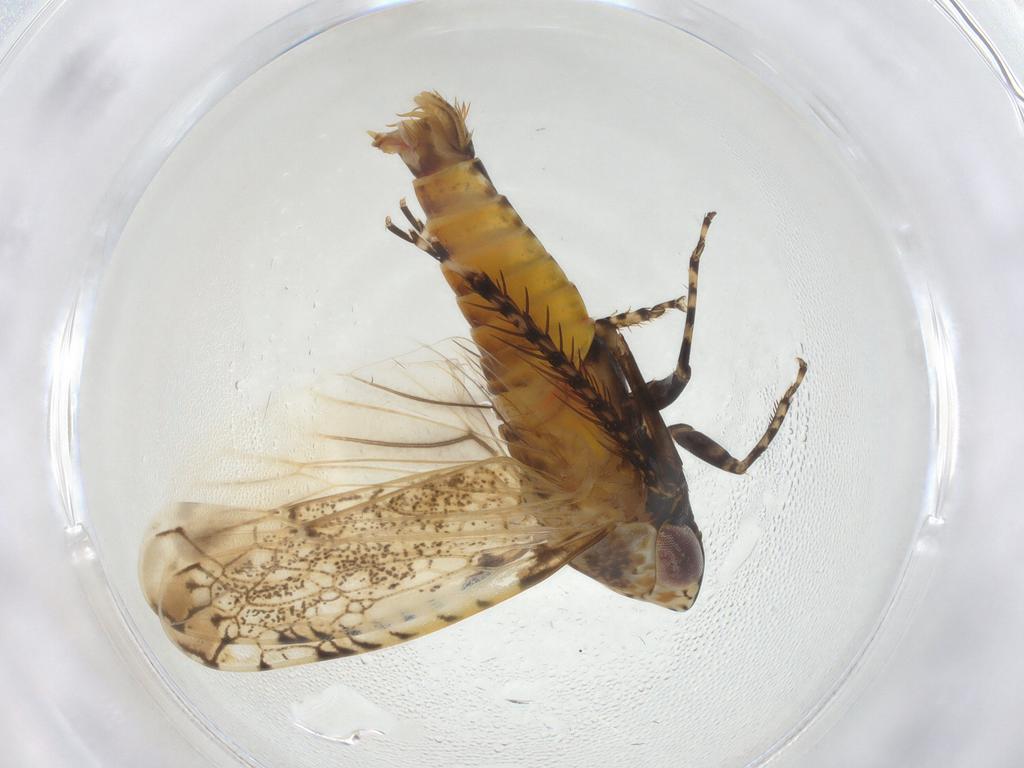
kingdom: Animalia
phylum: Arthropoda
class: Insecta
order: Hemiptera
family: Cicadellidae
